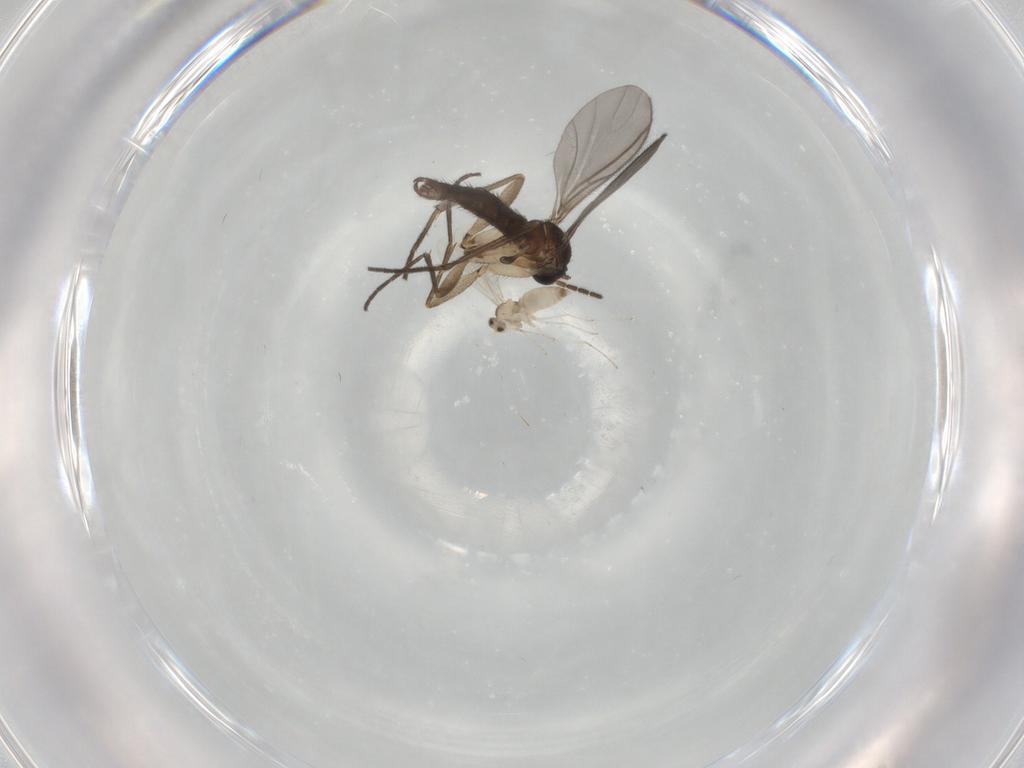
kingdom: Animalia
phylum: Arthropoda
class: Insecta
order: Diptera
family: Sciaridae
